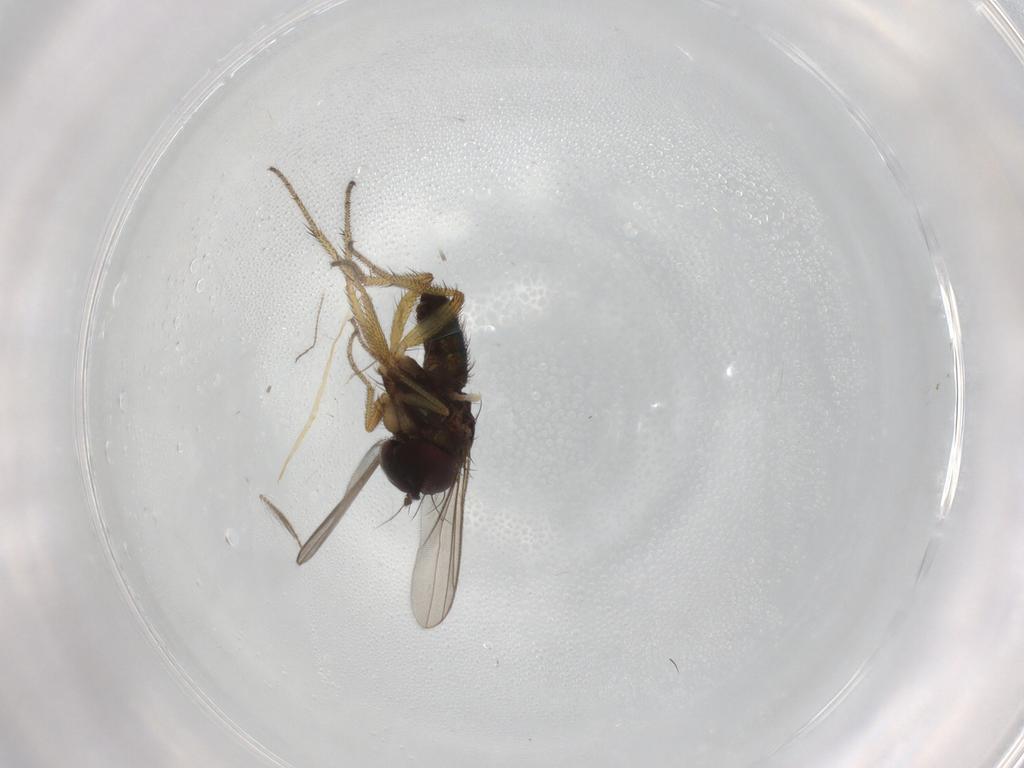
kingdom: Animalia
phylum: Arthropoda
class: Insecta
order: Diptera
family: Chironomidae
